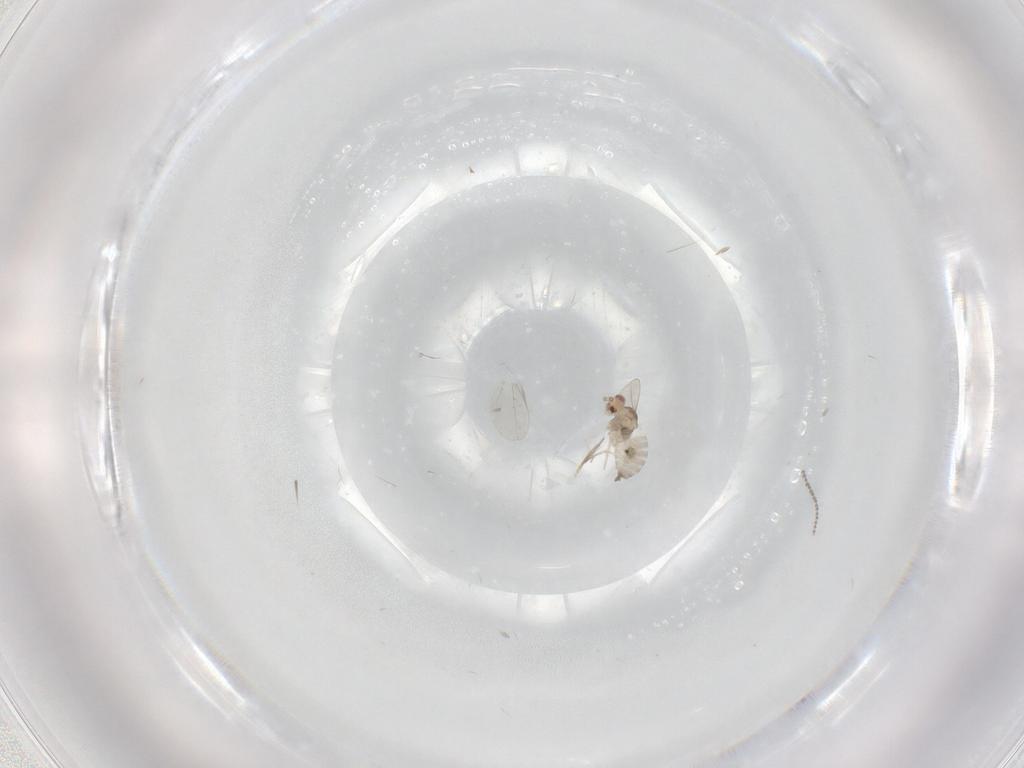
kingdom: Animalia
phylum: Arthropoda
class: Insecta
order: Diptera
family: Cecidomyiidae
